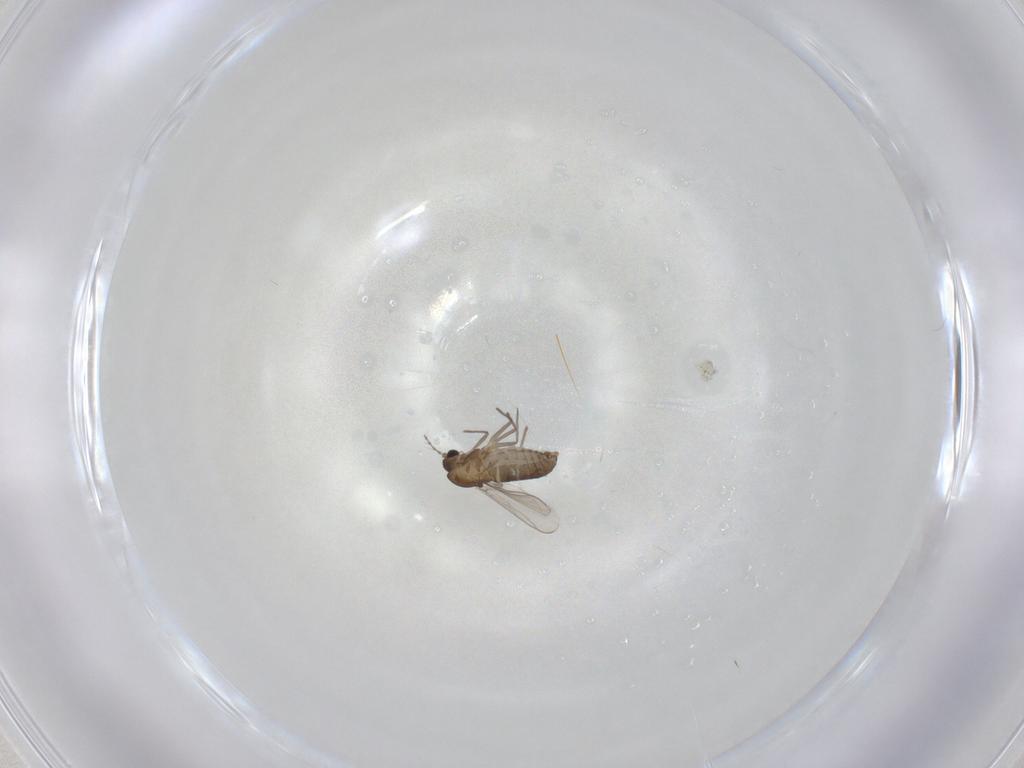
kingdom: Animalia
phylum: Arthropoda
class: Insecta
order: Diptera
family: Chironomidae
